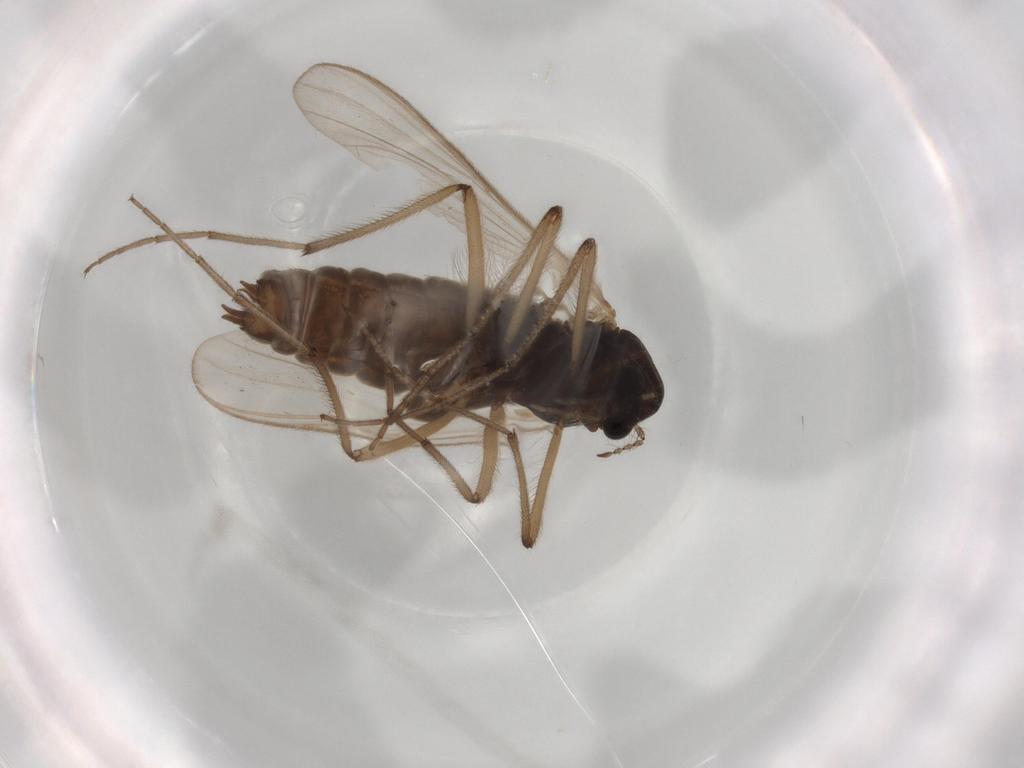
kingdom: Animalia
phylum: Arthropoda
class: Insecta
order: Diptera
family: Heleomyzidae
